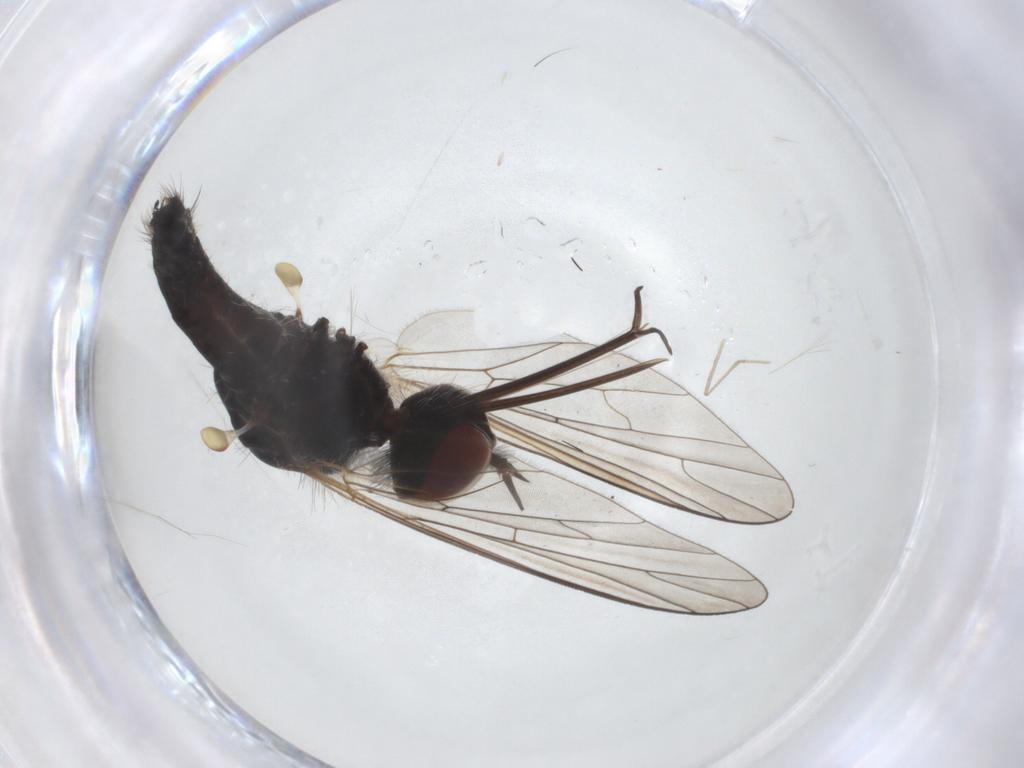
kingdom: Animalia
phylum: Arthropoda
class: Insecta
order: Diptera
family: Bombyliidae
